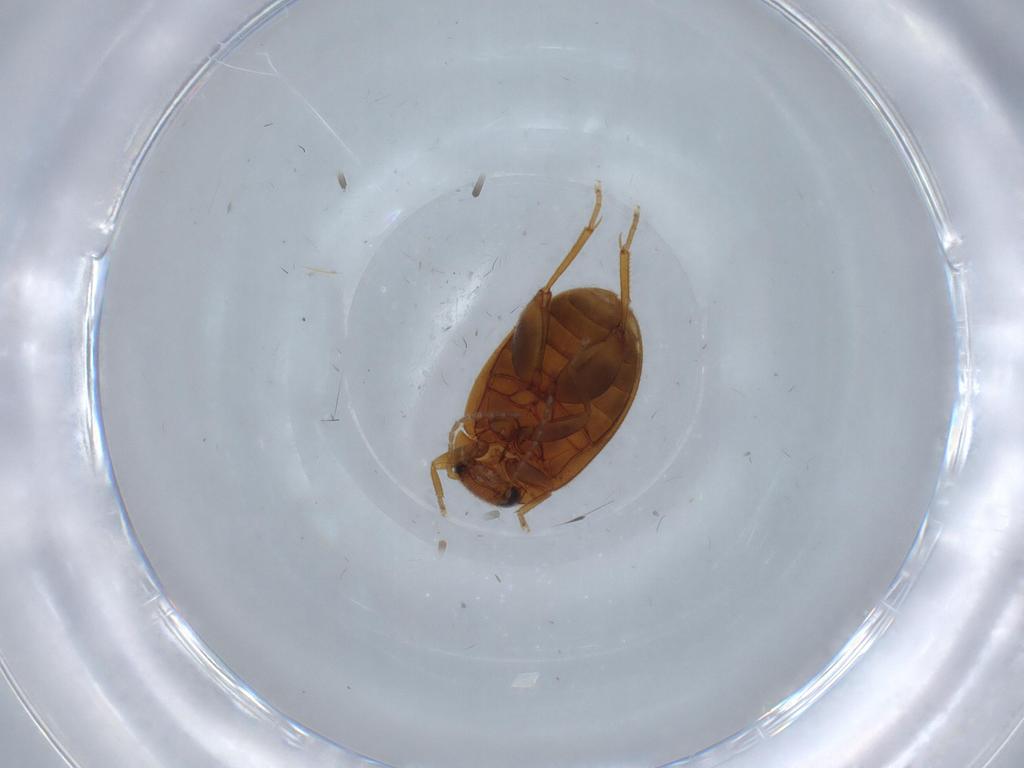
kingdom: Animalia
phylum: Arthropoda
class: Insecta
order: Coleoptera
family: Scirtidae
